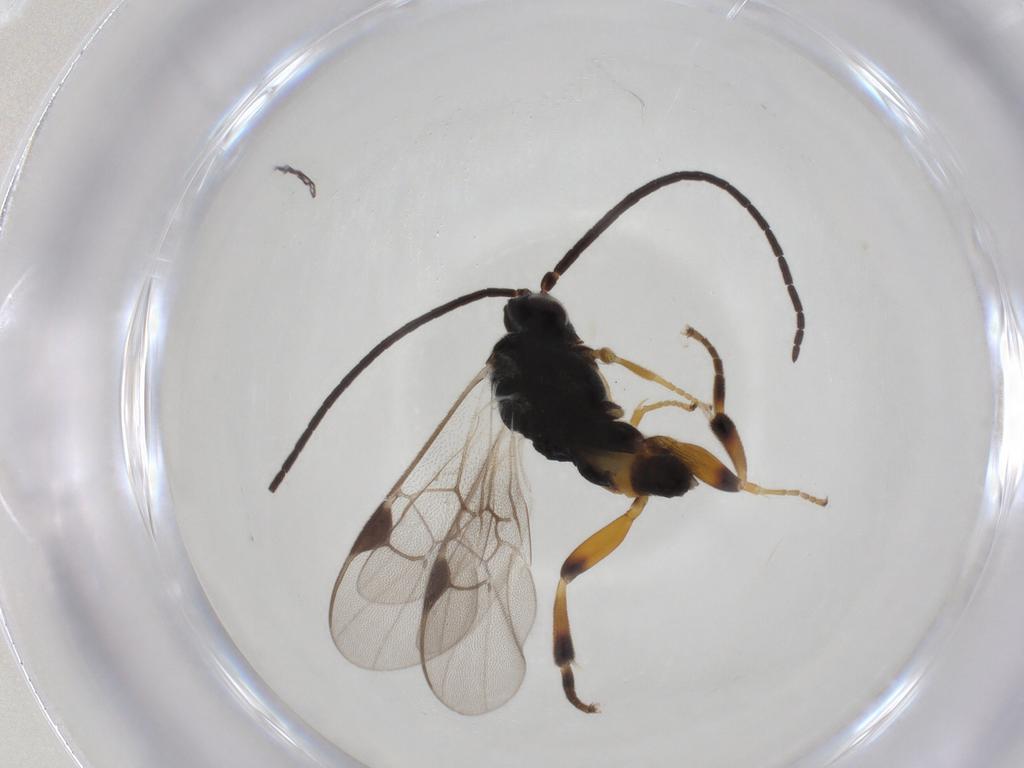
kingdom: Animalia
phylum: Arthropoda
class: Insecta
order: Hymenoptera
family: Braconidae
